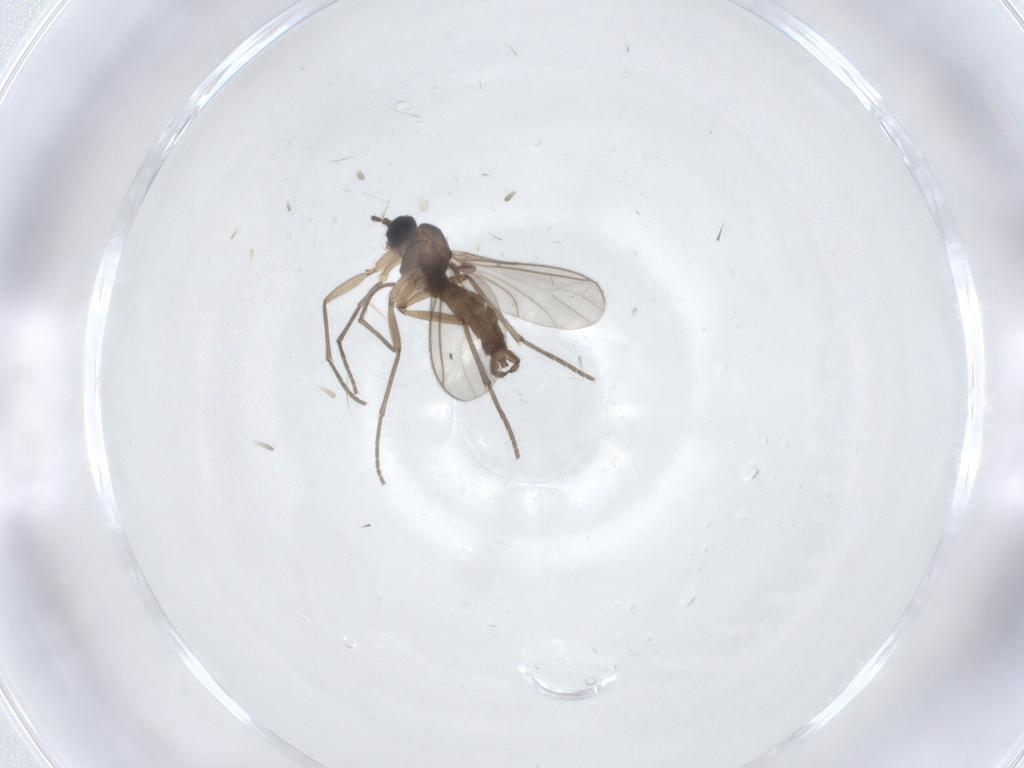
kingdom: Animalia
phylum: Arthropoda
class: Insecta
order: Diptera
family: Sciaridae
